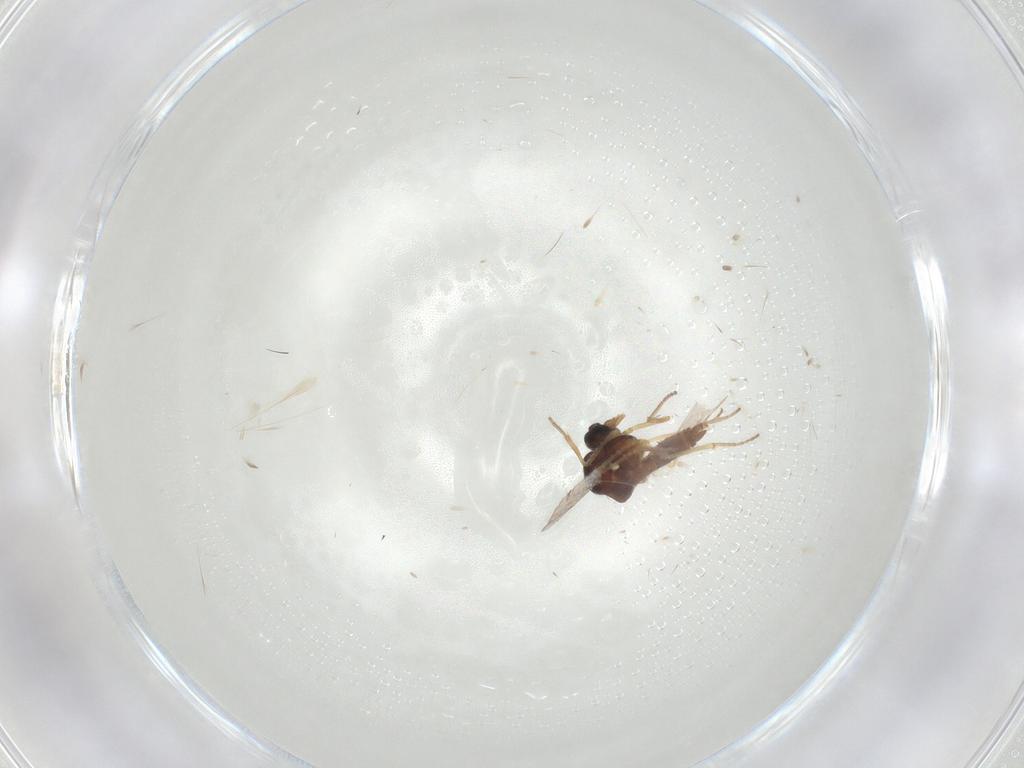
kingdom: Animalia
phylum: Arthropoda
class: Insecta
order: Diptera
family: Ceratopogonidae
